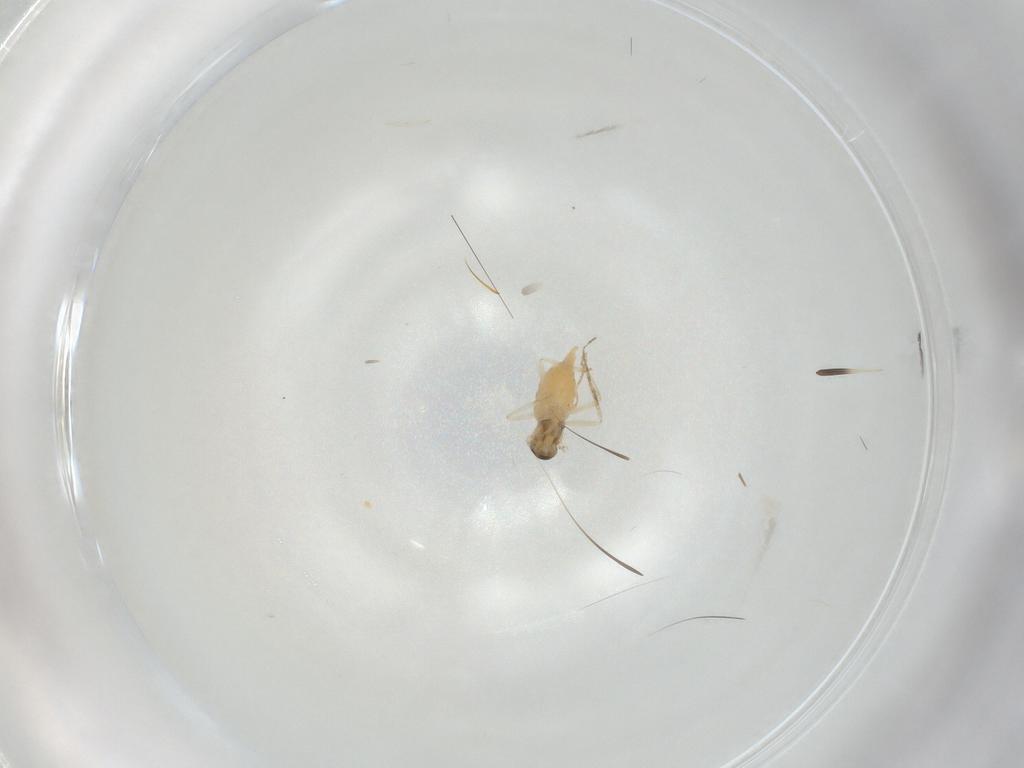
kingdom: Animalia
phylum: Arthropoda
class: Insecta
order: Diptera
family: Cecidomyiidae
